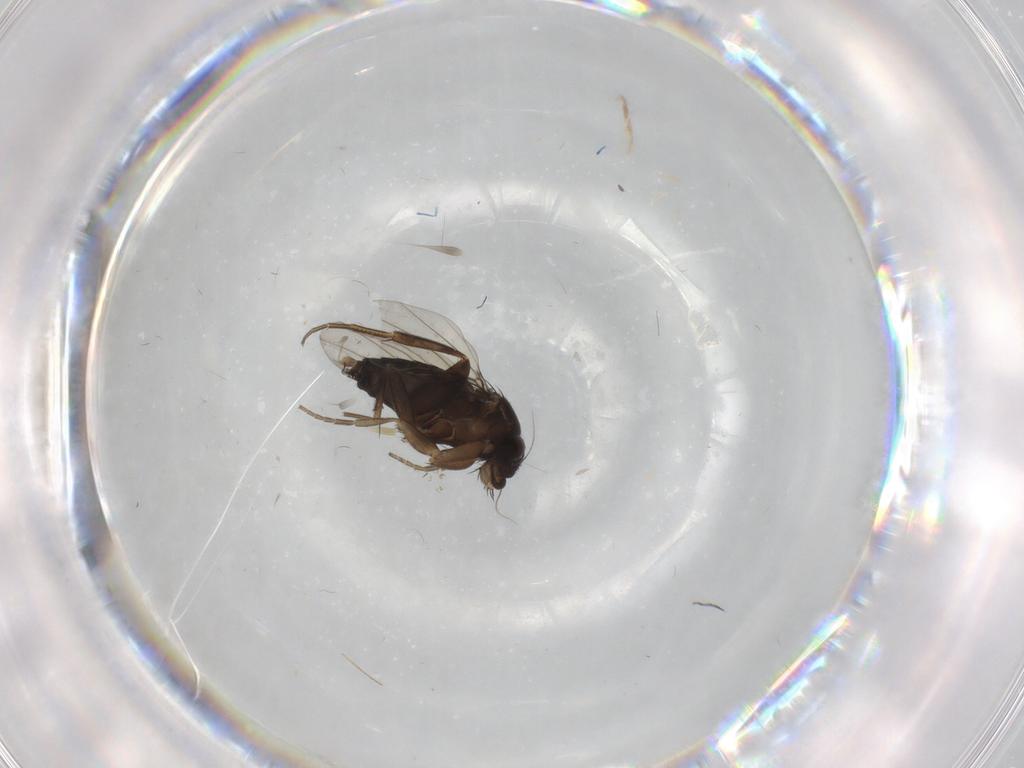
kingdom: Animalia
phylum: Arthropoda
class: Insecta
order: Diptera
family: Phoridae
